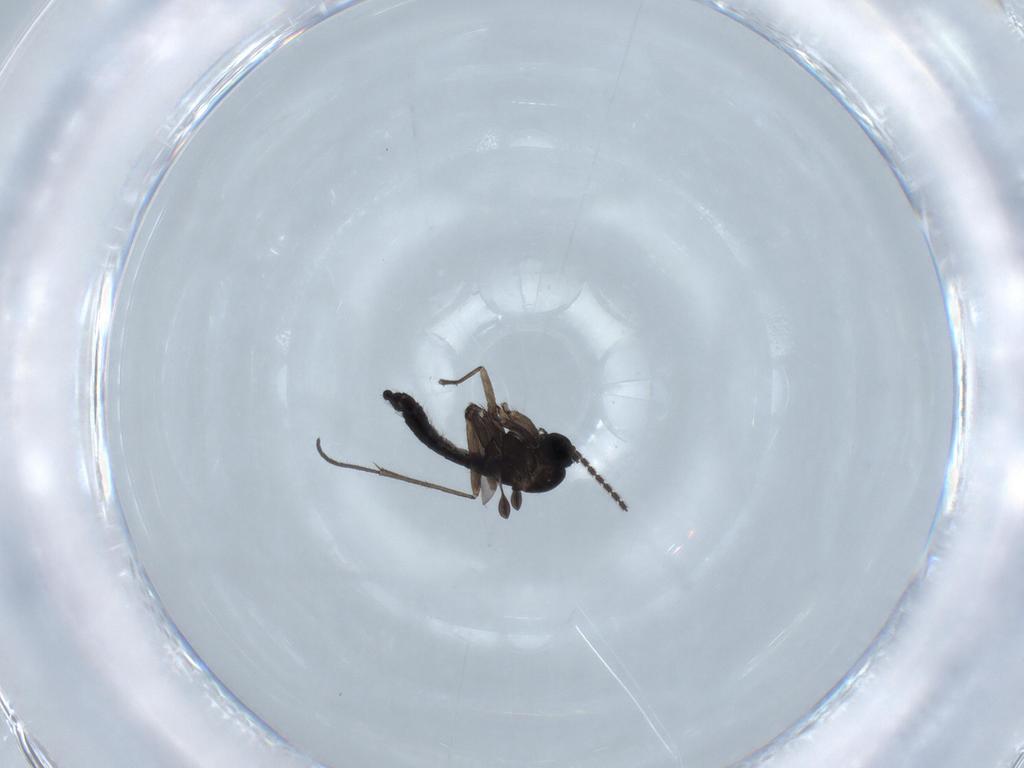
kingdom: Animalia
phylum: Arthropoda
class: Insecta
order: Diptera
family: Sciaridae
